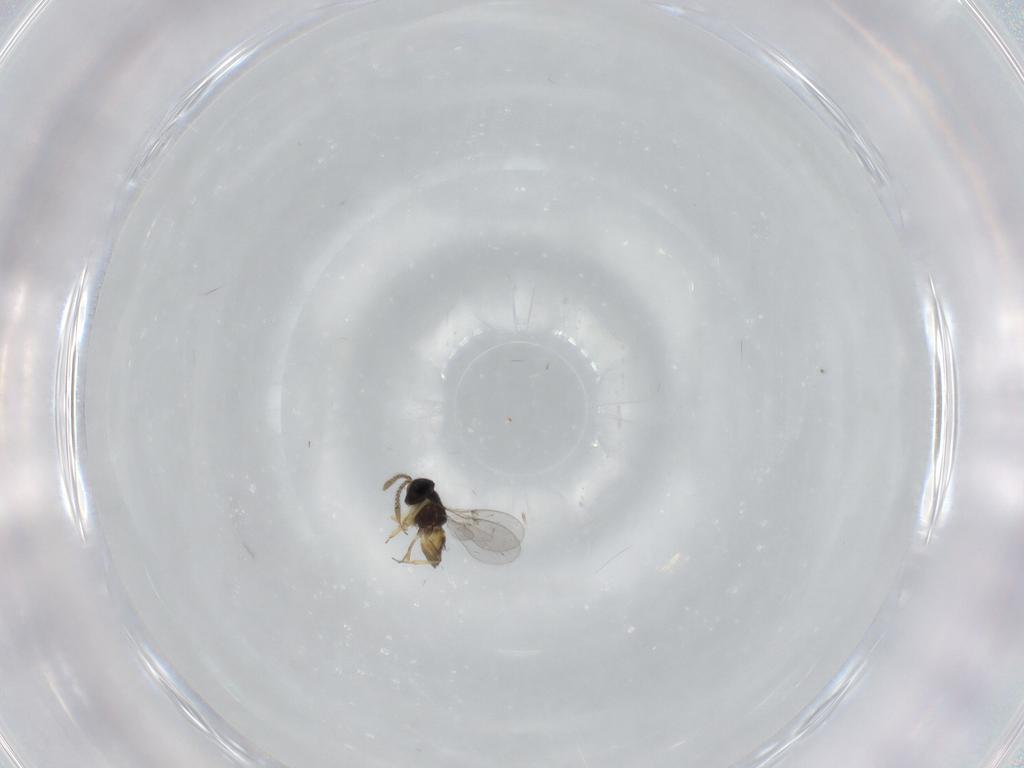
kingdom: Animalia
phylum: Arthropoda
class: Insecta
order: Hymenoptera
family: Encyrtidae
